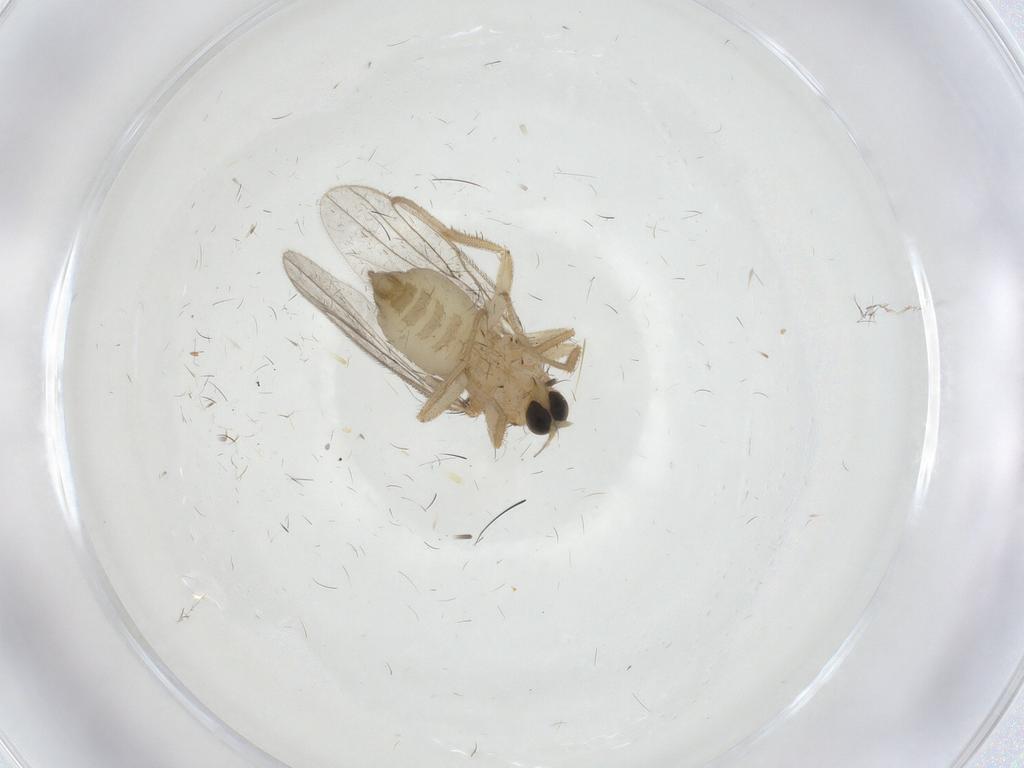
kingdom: Animalia
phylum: Arthropoda
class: Insecta
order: Diptera
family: Hybotidae
